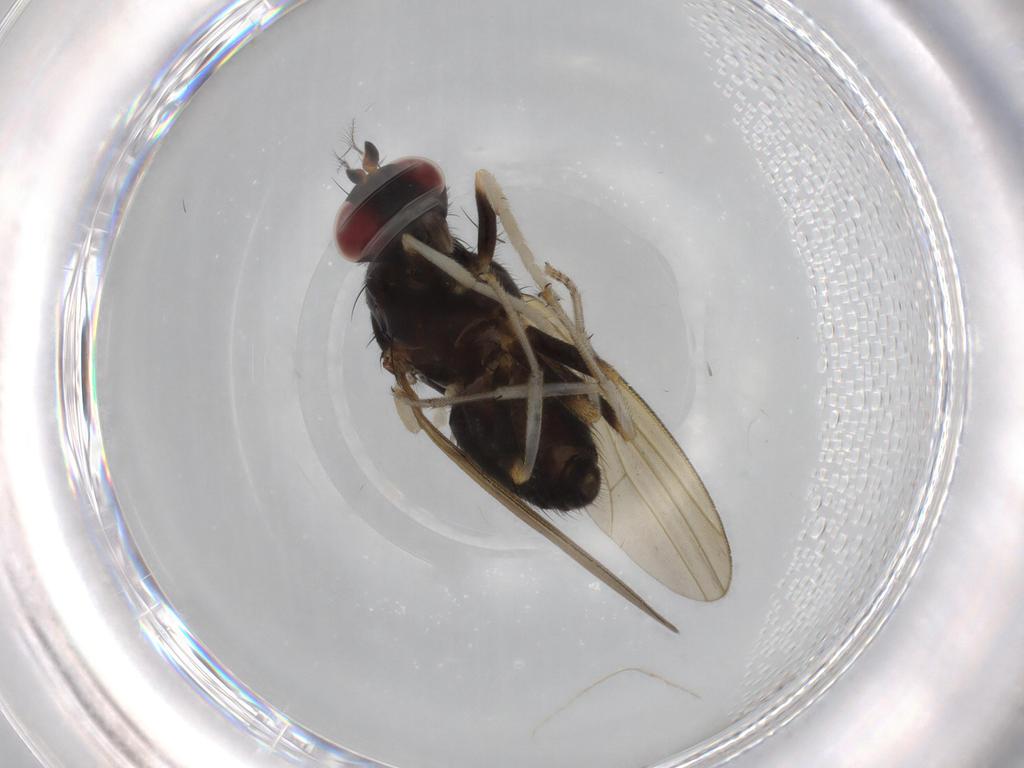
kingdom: Animalia
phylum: Arthropoda
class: Insecta
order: Diptera
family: Lauxaniidae
